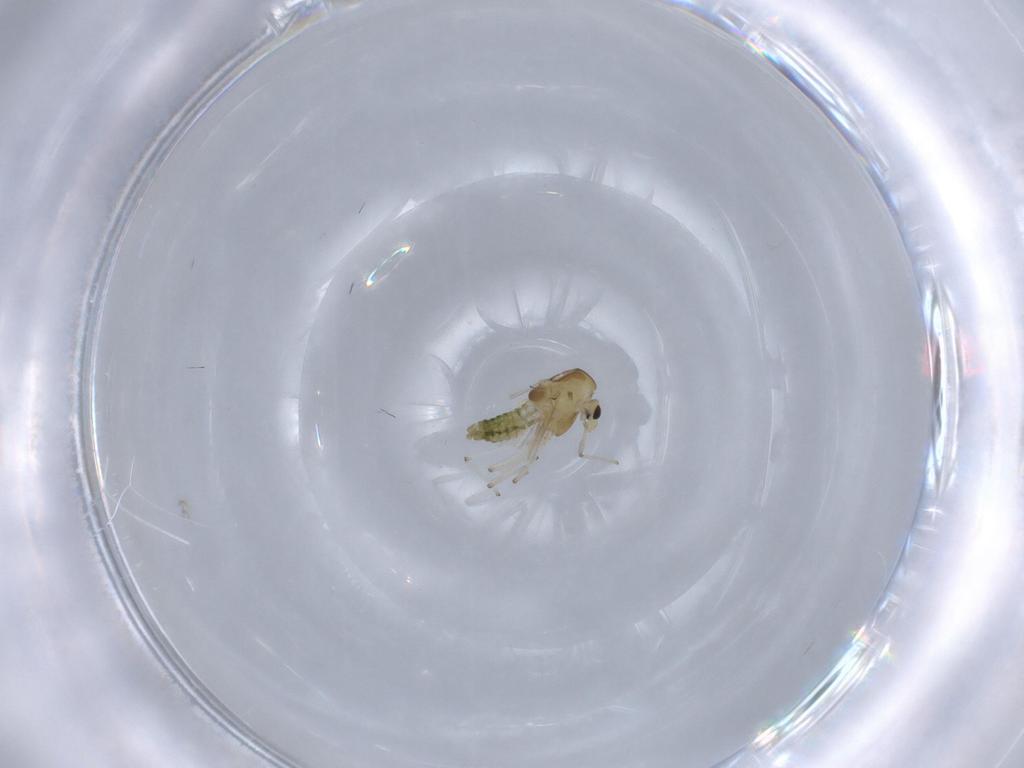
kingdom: Animalia
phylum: Arthropoda
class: Insecta
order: Diptera
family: Chironomidae
